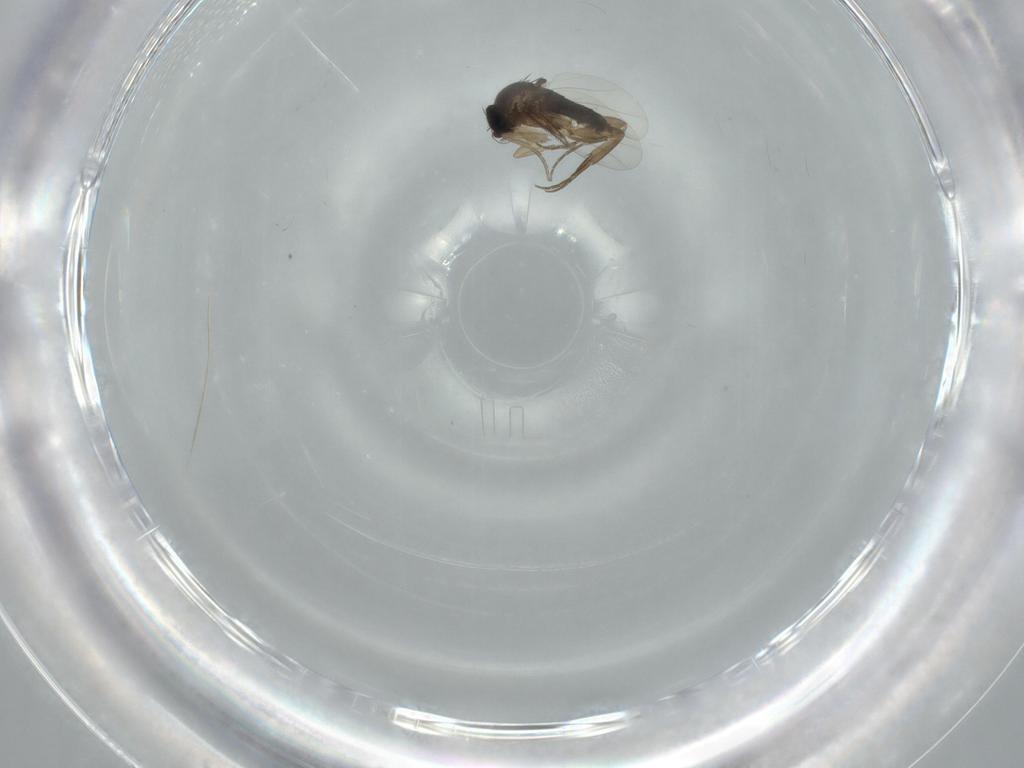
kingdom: Animalia
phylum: Arthropoda
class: Insecta
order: Diptera
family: Phoridae
